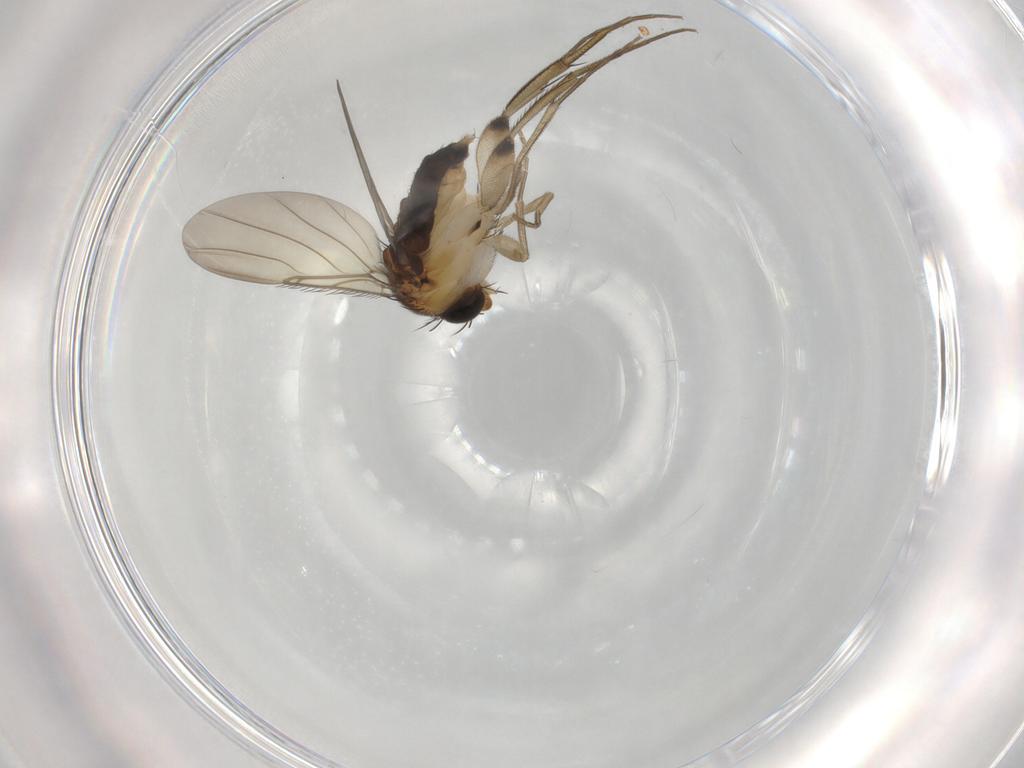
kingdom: Animalia
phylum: Arthropoda
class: Insecta
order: Diptera
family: Phoridae
